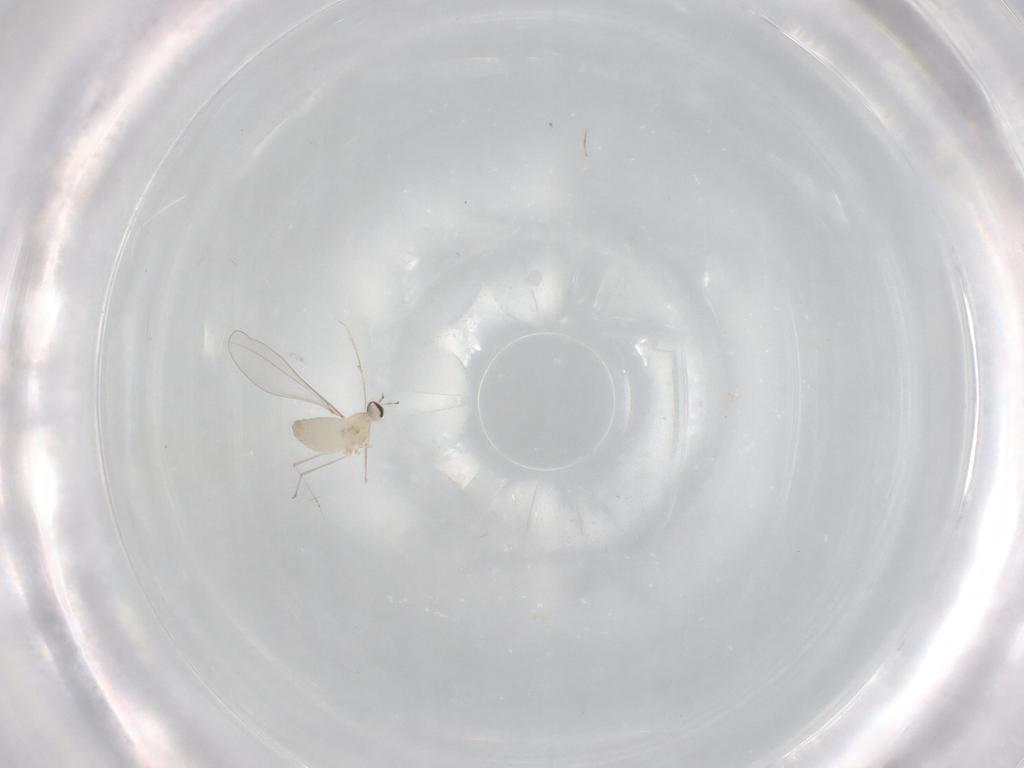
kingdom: Animalia
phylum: Arthropoda
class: Insecta
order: Diptera
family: Cecidomyiidae
